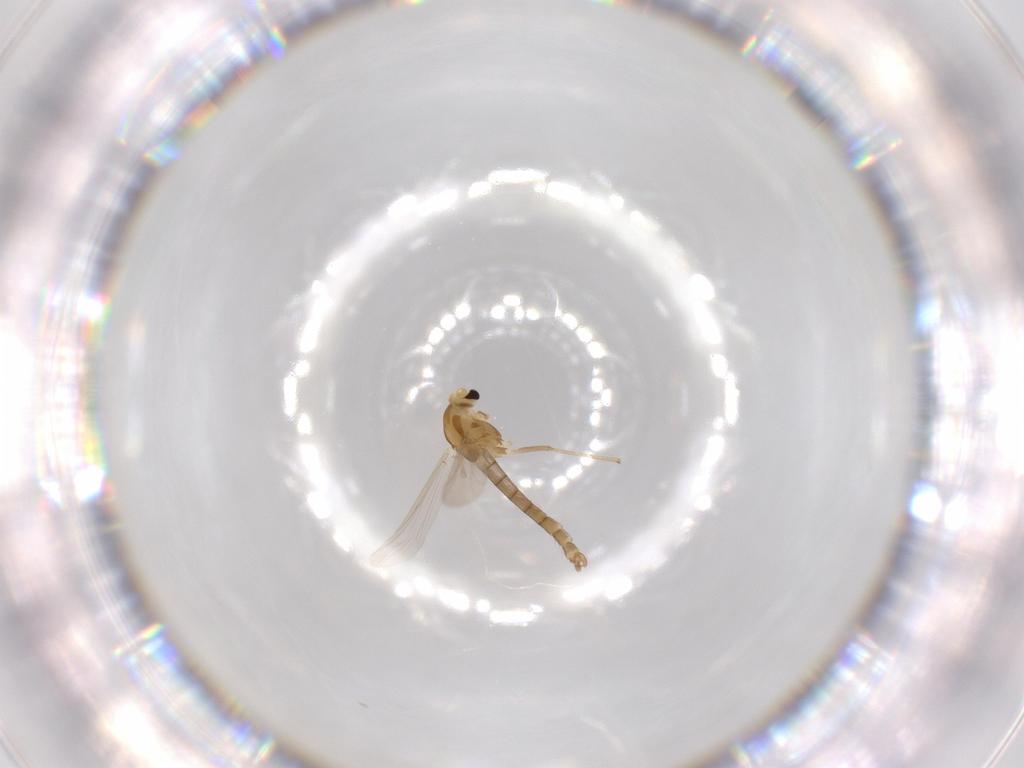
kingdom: Animalia
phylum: Arthropoda
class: Insecta
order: Diptera
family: Chironomidae
